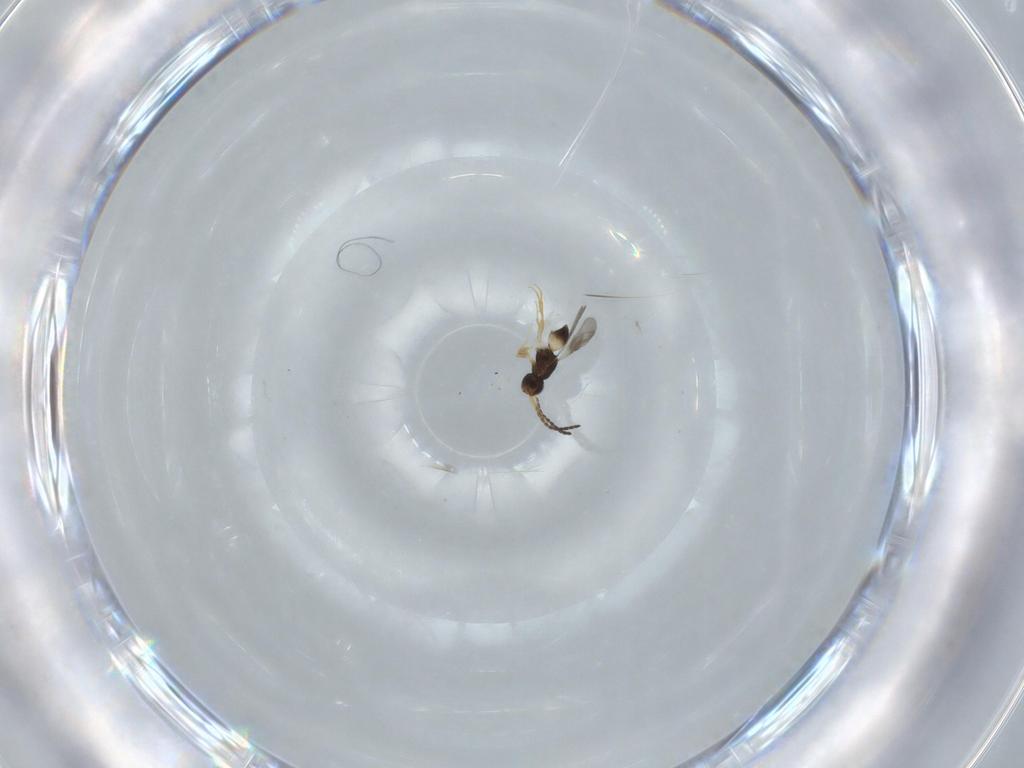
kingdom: Animalia
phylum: Arthropoda
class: Insecta
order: Hymenoptera
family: Ceraphronidae
